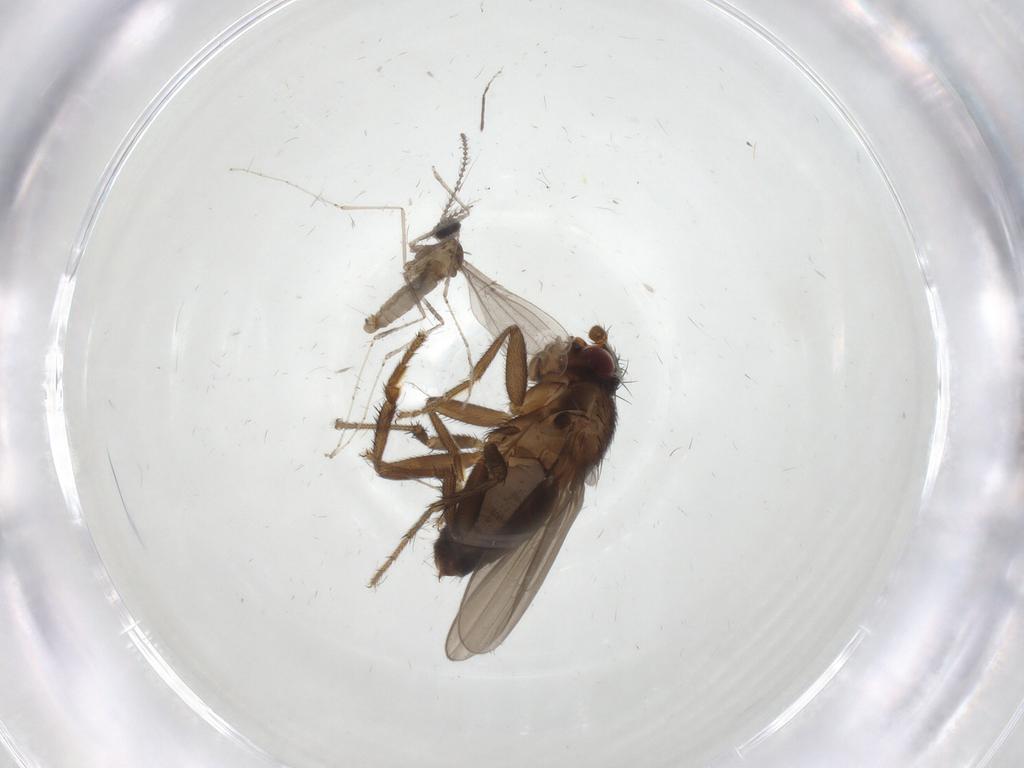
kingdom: Animalia
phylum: Arthropoda
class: Insecta
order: Diptera
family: Cecidomyiidae
